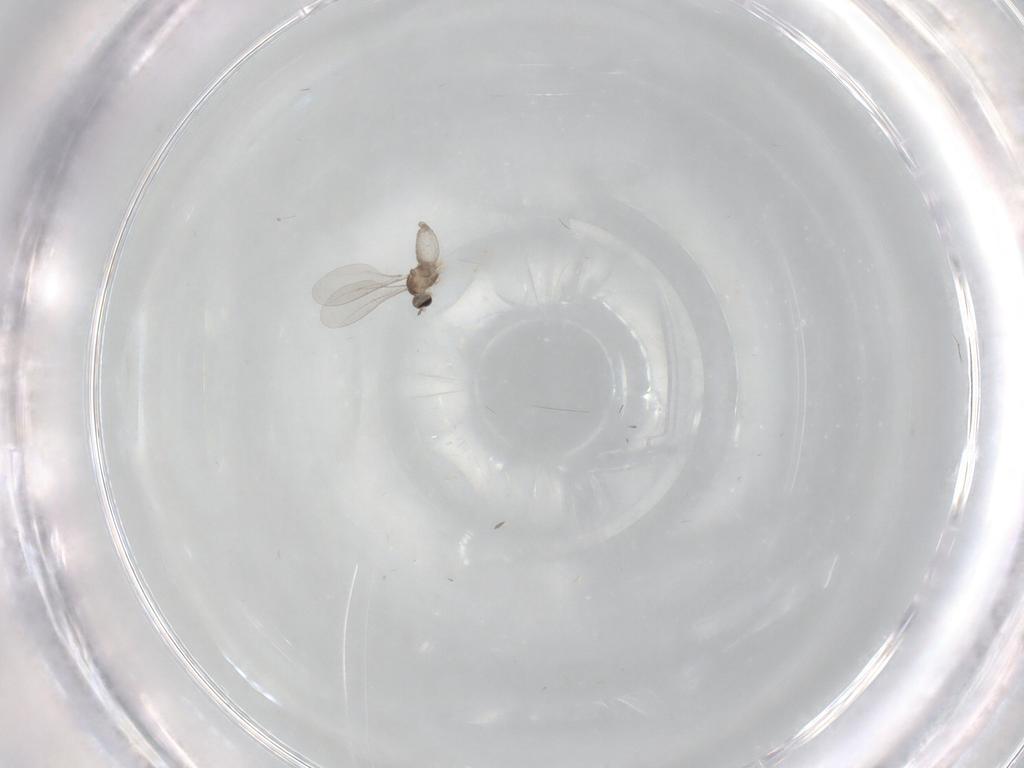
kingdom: Animalia
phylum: Arthropoda
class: Insecta
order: Diptera
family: Cecidomyiidae
